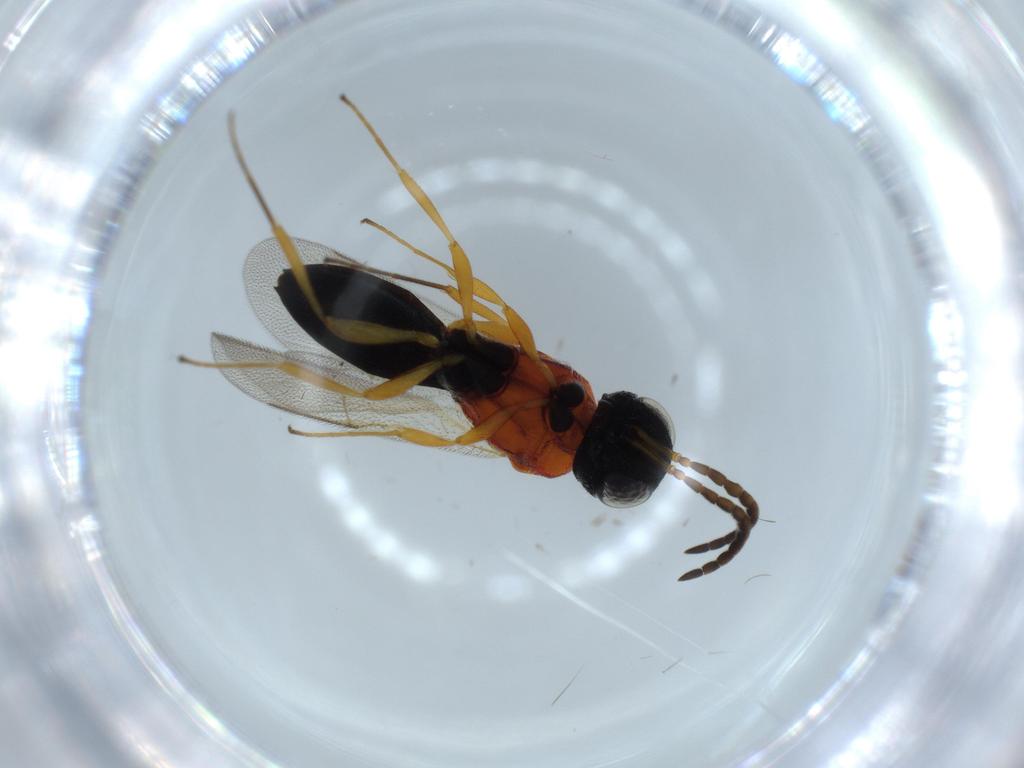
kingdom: Animalia
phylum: Arthropoda
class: Insecta
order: Hymenoptera
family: Scelionidae
